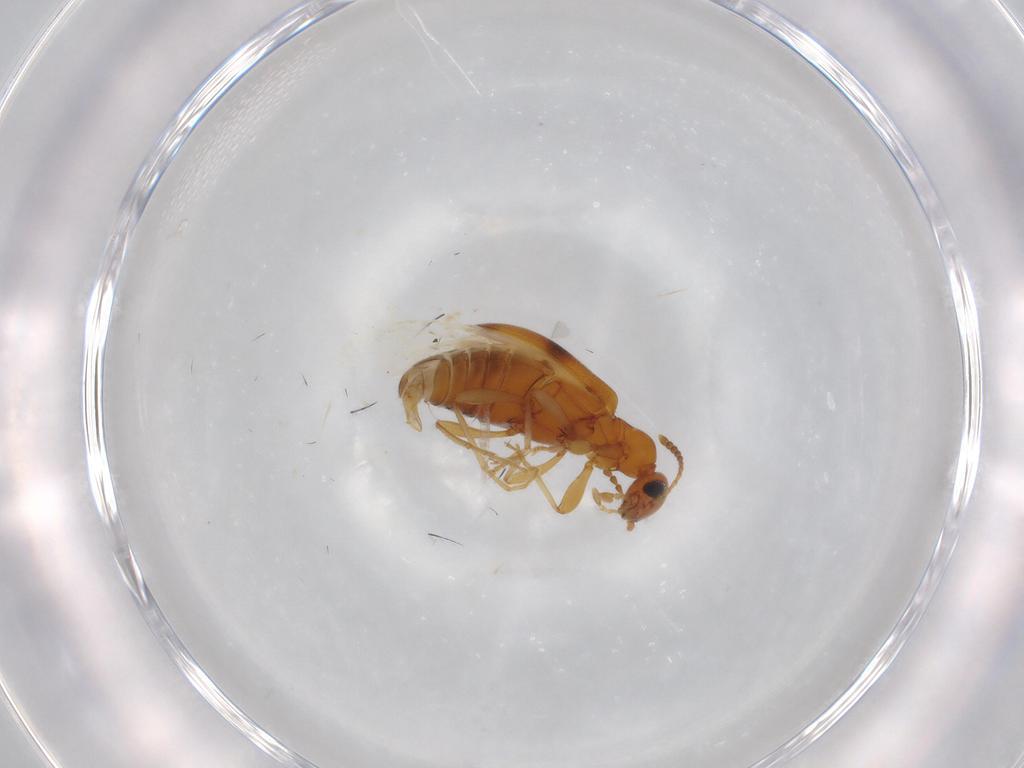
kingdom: Animalia
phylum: Arthropoda
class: Insecta
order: Coleoptera
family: Anthicidae
